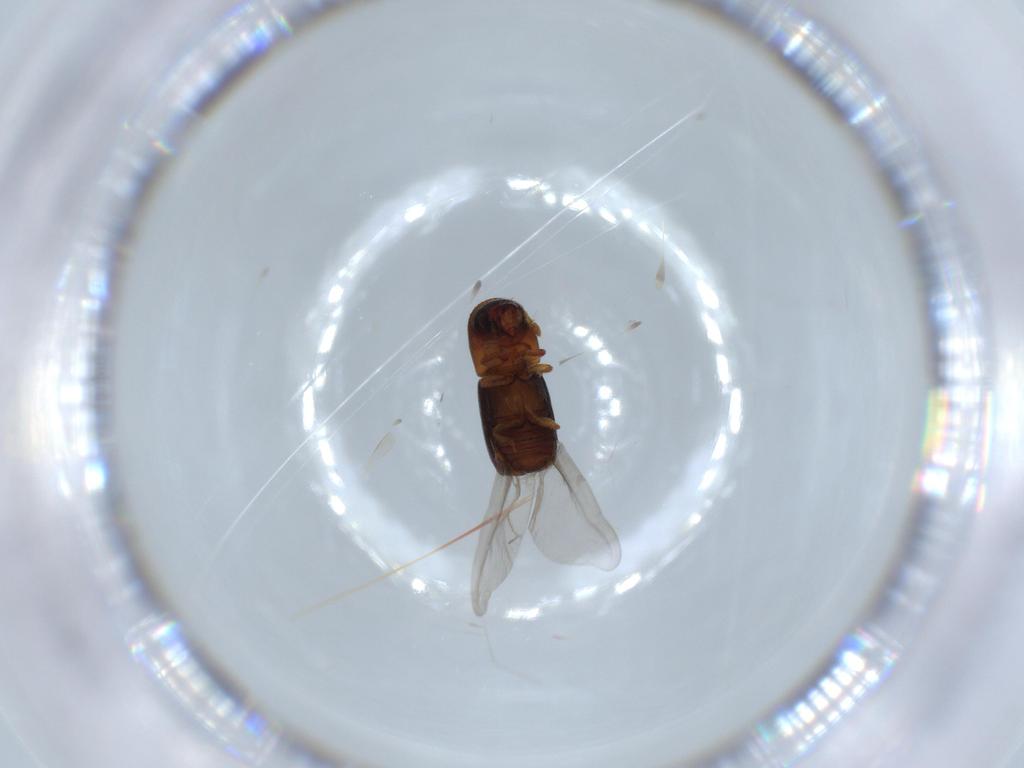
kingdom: Animalia
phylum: Arthropoda
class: Insecta
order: Coleoptera
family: Curculionidae
